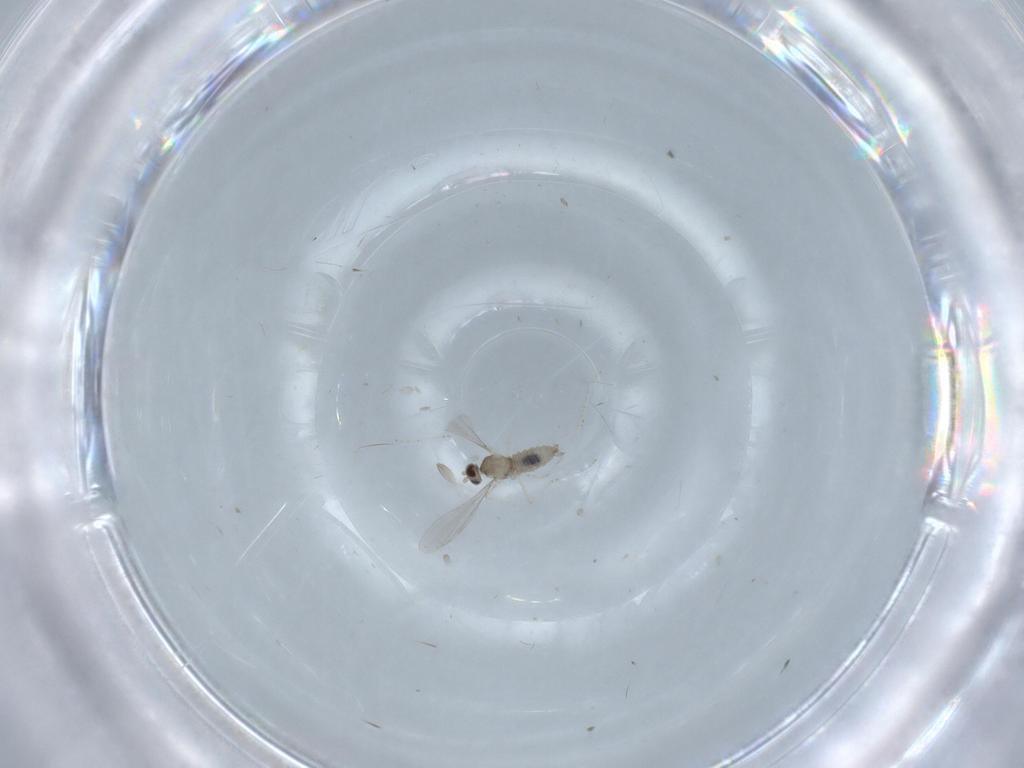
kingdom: Animalia
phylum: Arthropoda
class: Insecta
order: Diptera
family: Cecidomyiidae
